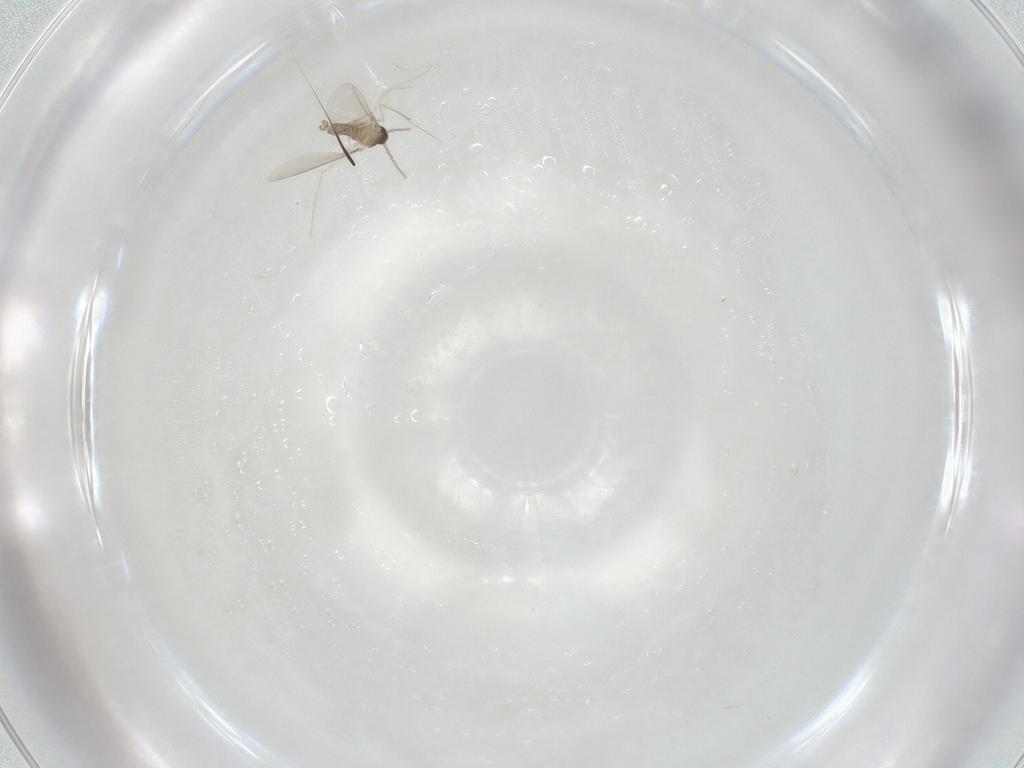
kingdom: Animalia
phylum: Arthropoda
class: Insecta
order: Diptera
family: Cecidomyiidae
